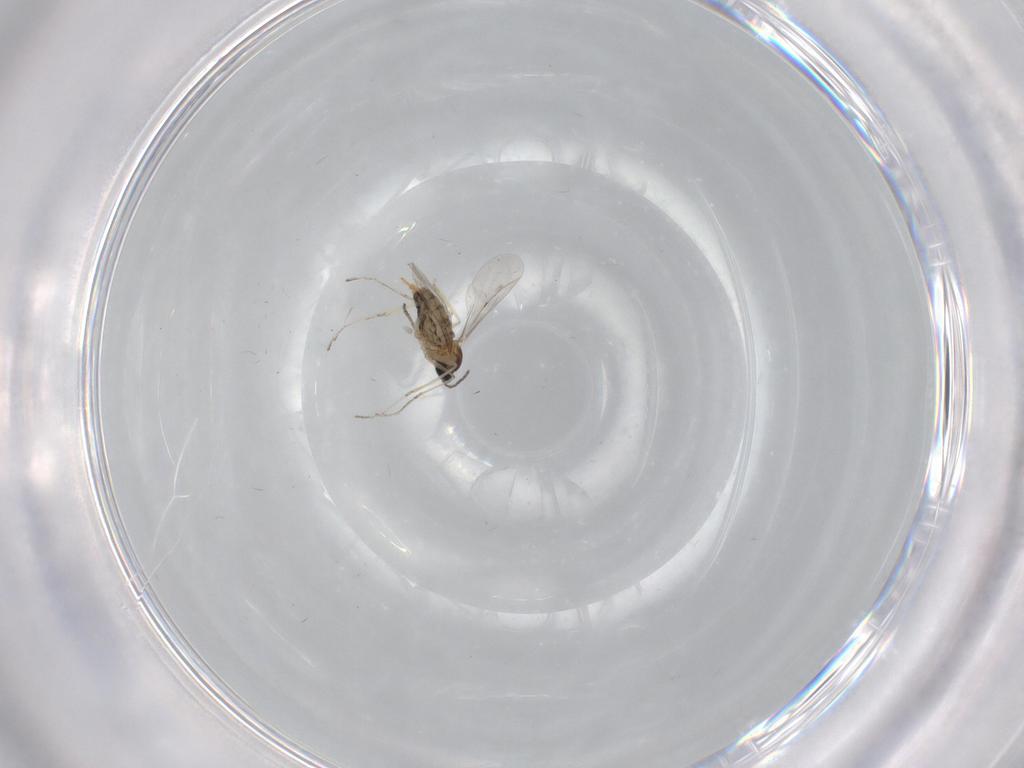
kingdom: Animalia
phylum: Arthropoda
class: Insecta
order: Diptera
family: Cecidomyiidae
